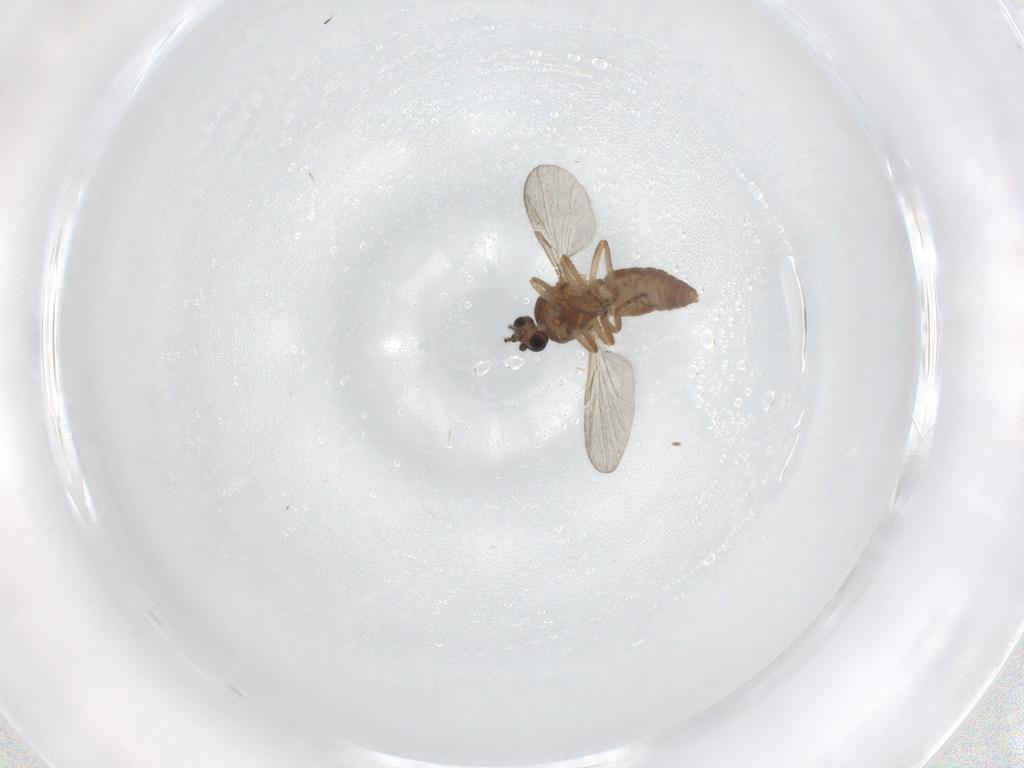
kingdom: Animalia
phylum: Arthropoda
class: Insecta
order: Diptera
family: Ceratopogonidae
